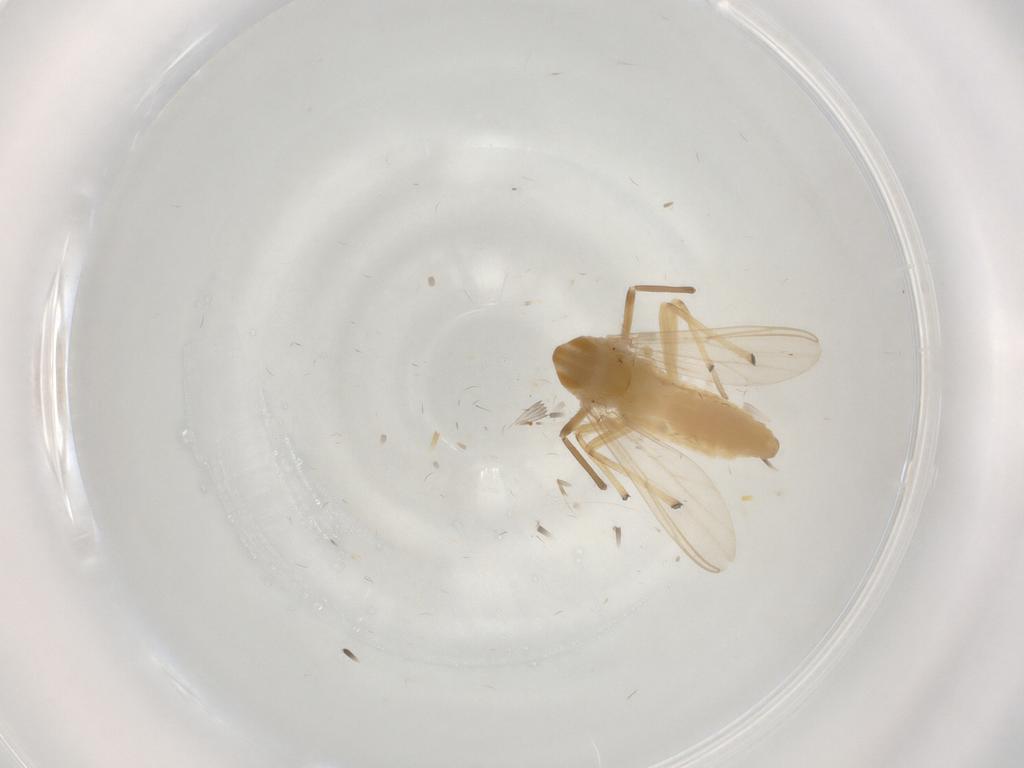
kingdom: Animalia
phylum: Arthropoda
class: Insecta
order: Diptera
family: Chironomidae
